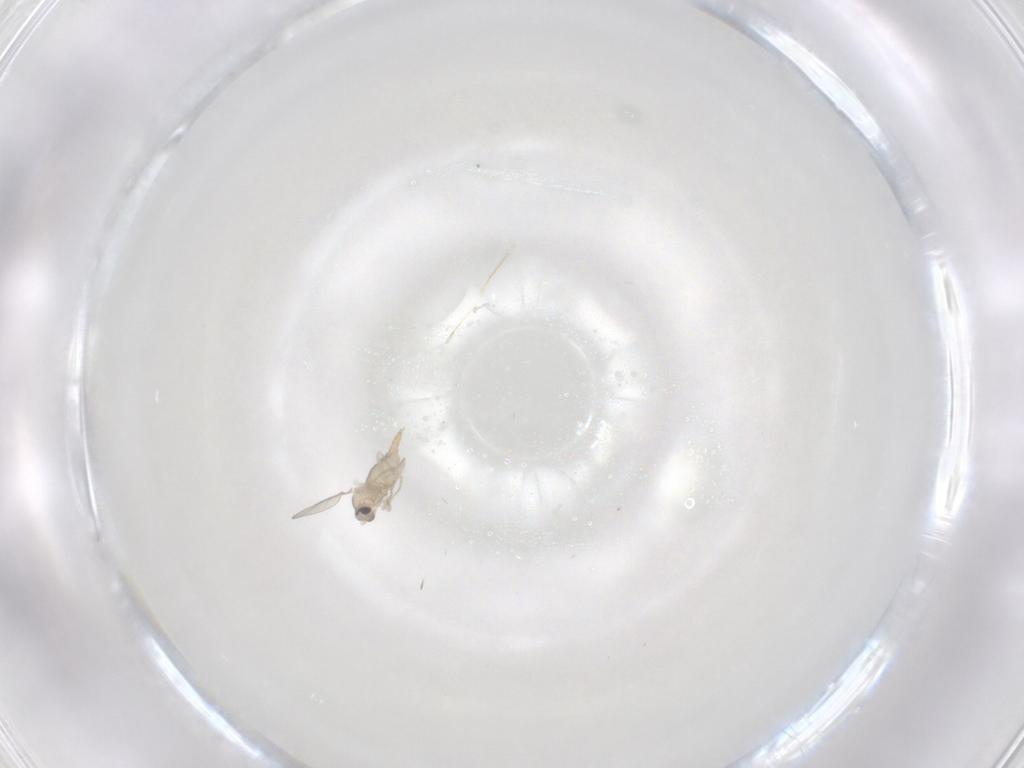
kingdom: Animalia
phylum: Arthropoda
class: Insecta
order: Diptera
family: Cecidomyiidae
